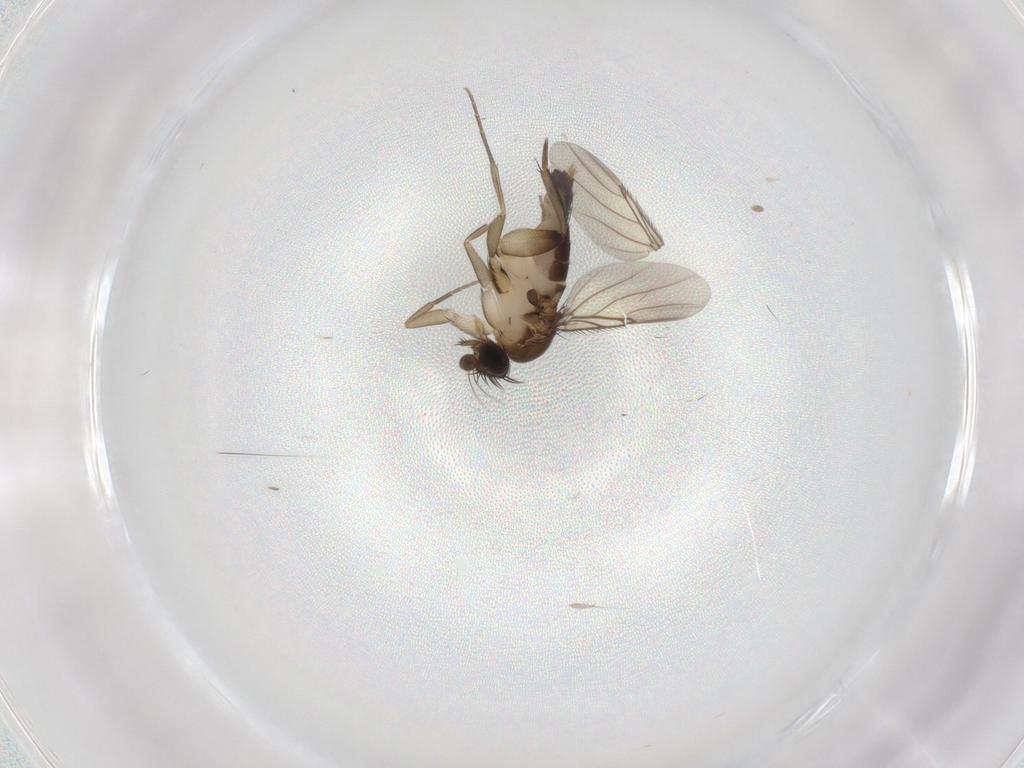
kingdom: Animalia
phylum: Arthropoda
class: Insecta
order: Diptera
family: Phoridae
